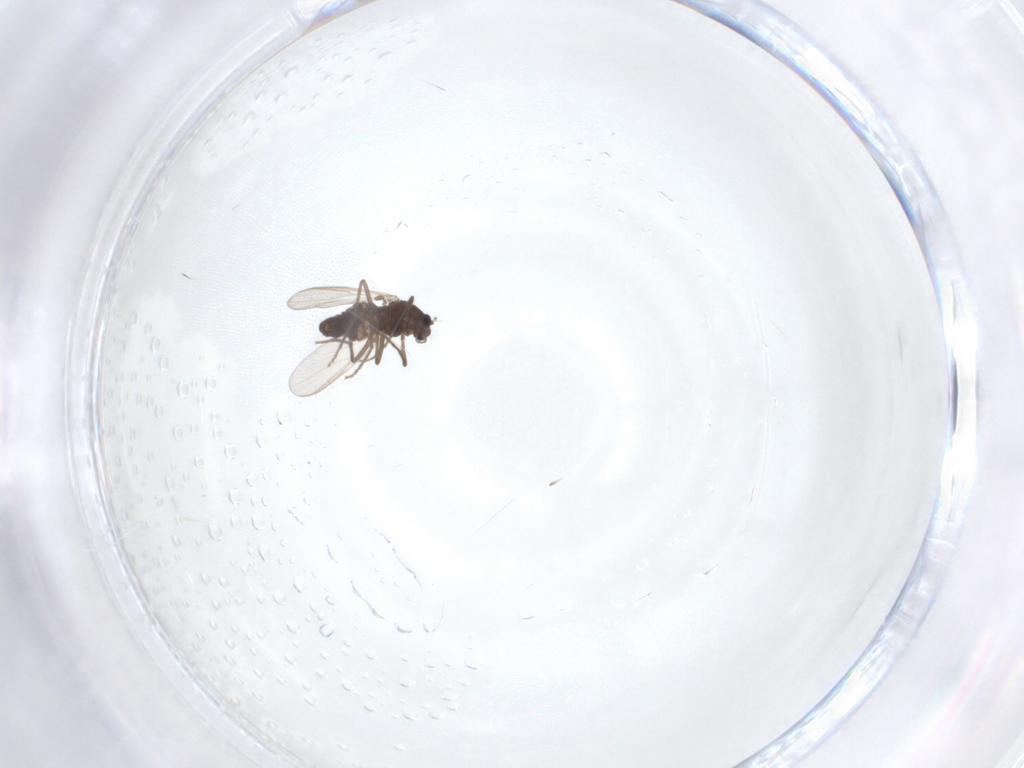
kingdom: Animalia
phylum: Arthropoda
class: Insecta
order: Diptera
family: Chironomidae
